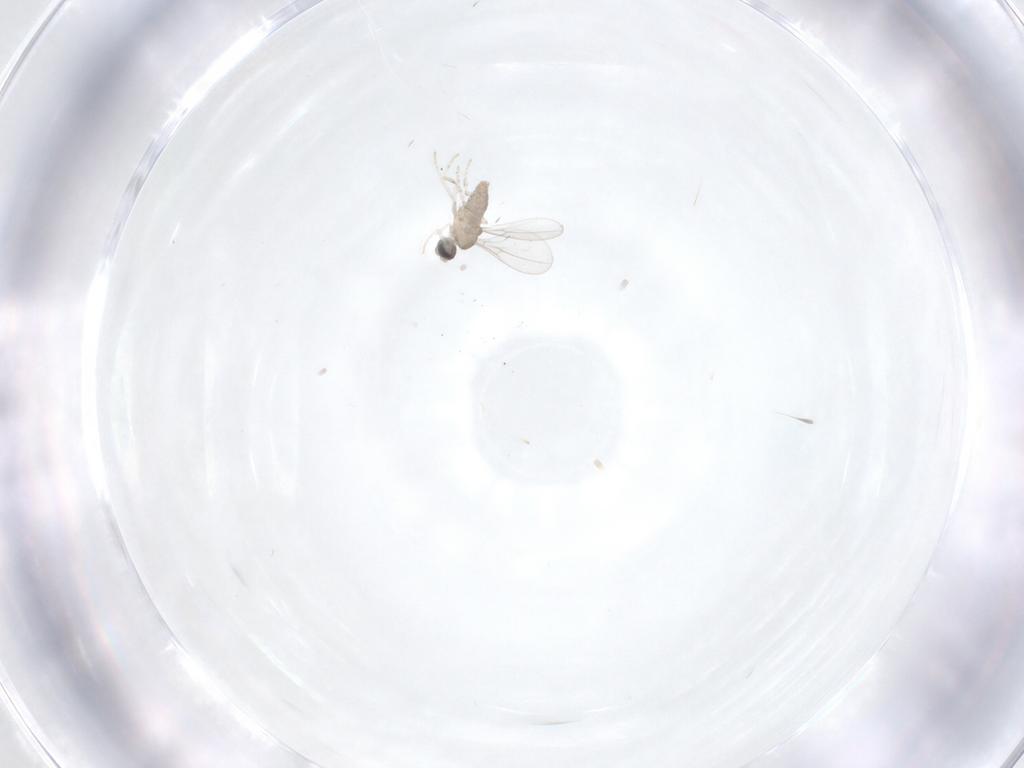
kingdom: Animalia
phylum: Arthropoda
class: Insecta
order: Diptera
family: Cecidomyiidae
